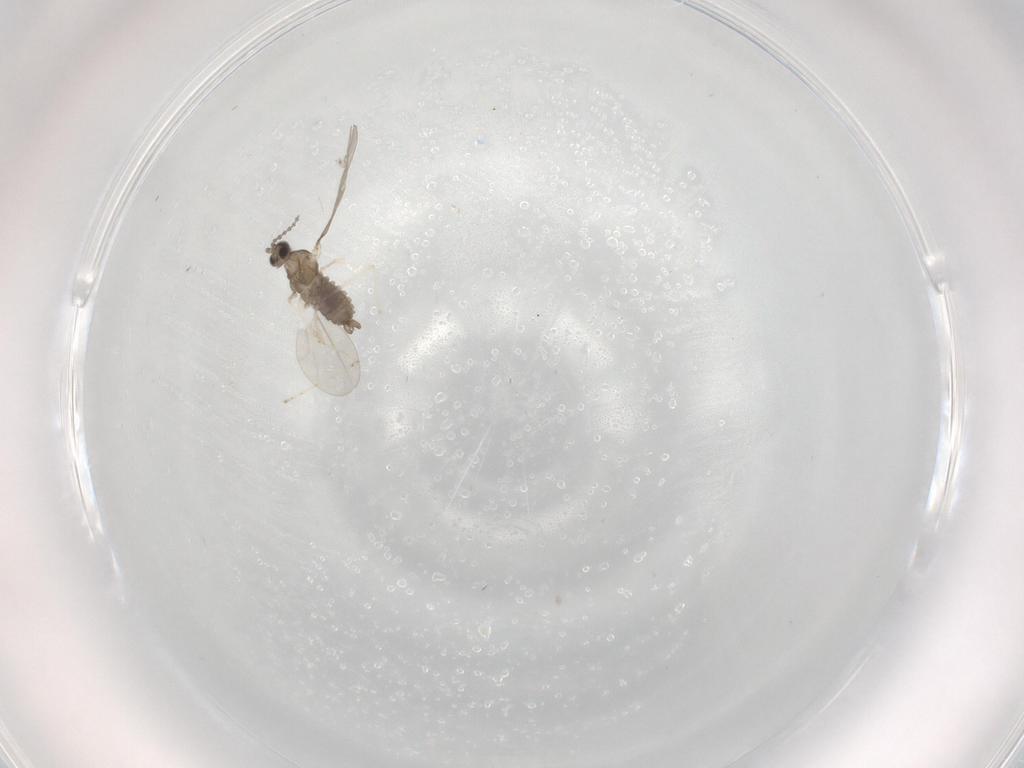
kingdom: Animalia
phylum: Arthropoda
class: Insecta
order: Diptera
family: Cecidomyiidae
